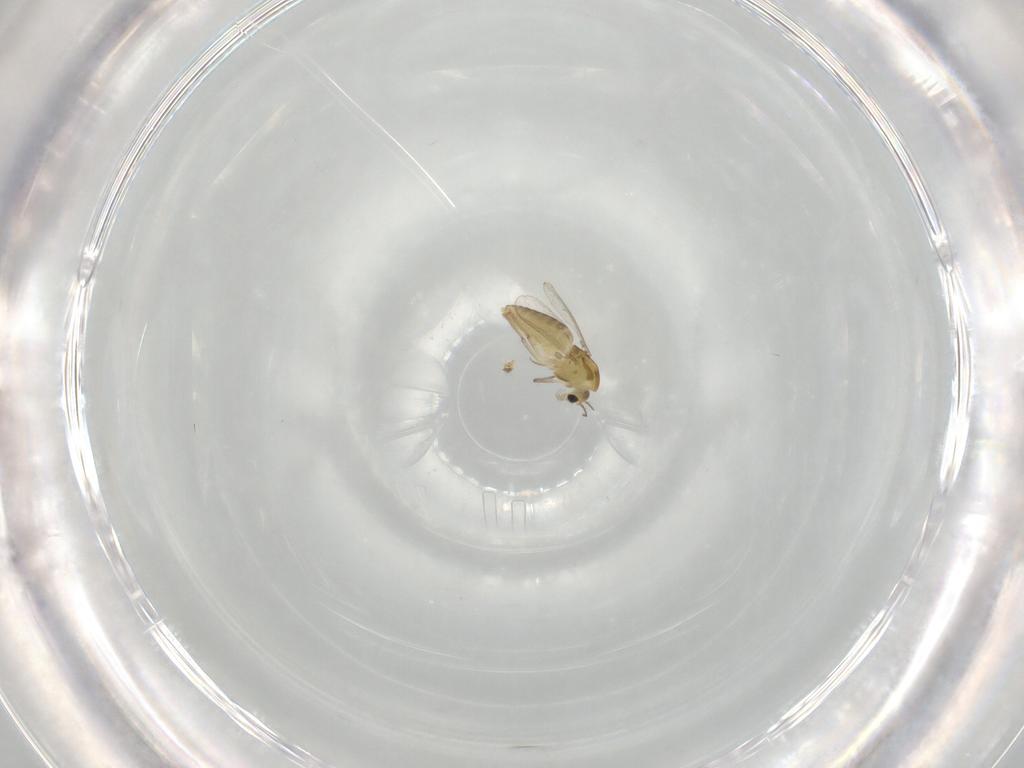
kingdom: Animalia
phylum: Arthropoda
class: Insecta
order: Diptera
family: Chironomidae
